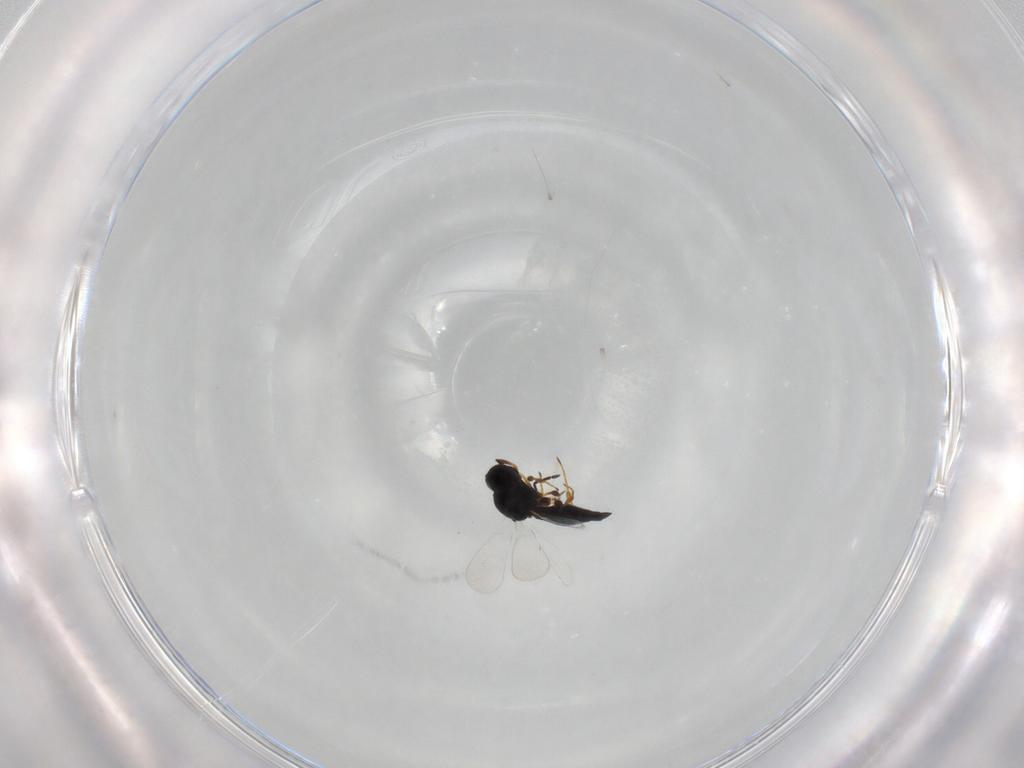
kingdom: Animalia
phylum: Arthropoda
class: Insecta
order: Hymenoptera
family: Platygastridae
